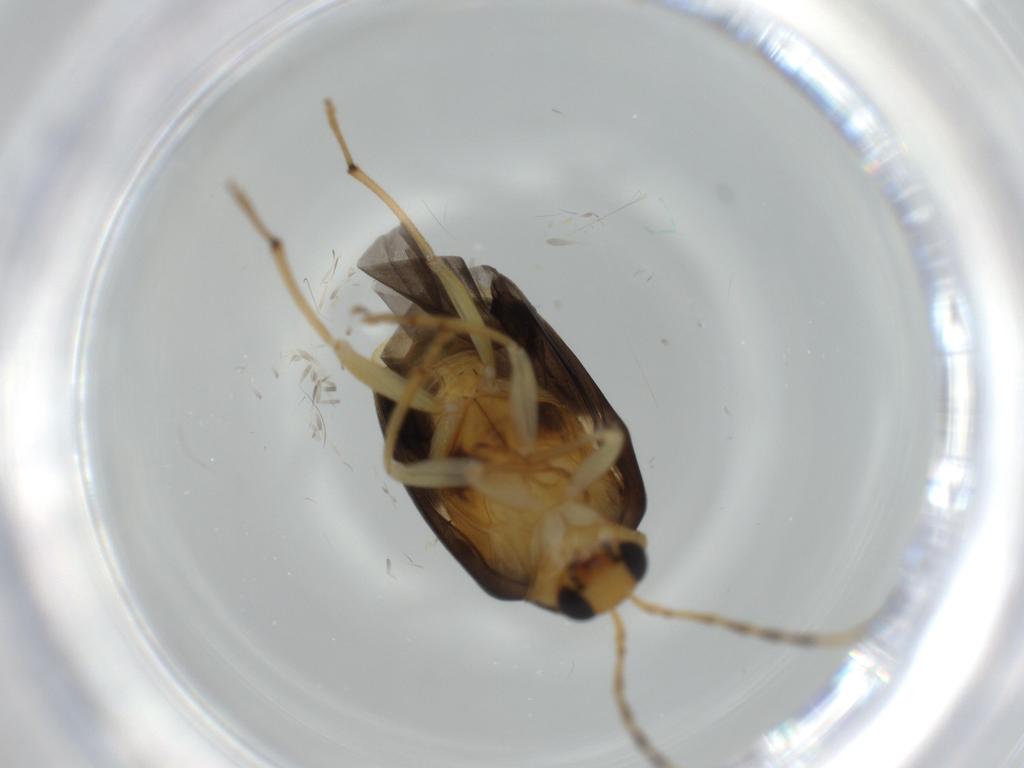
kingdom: Animalia
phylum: Arthropoda
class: Insecta
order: Coleoptera
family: Chrysomelidae
